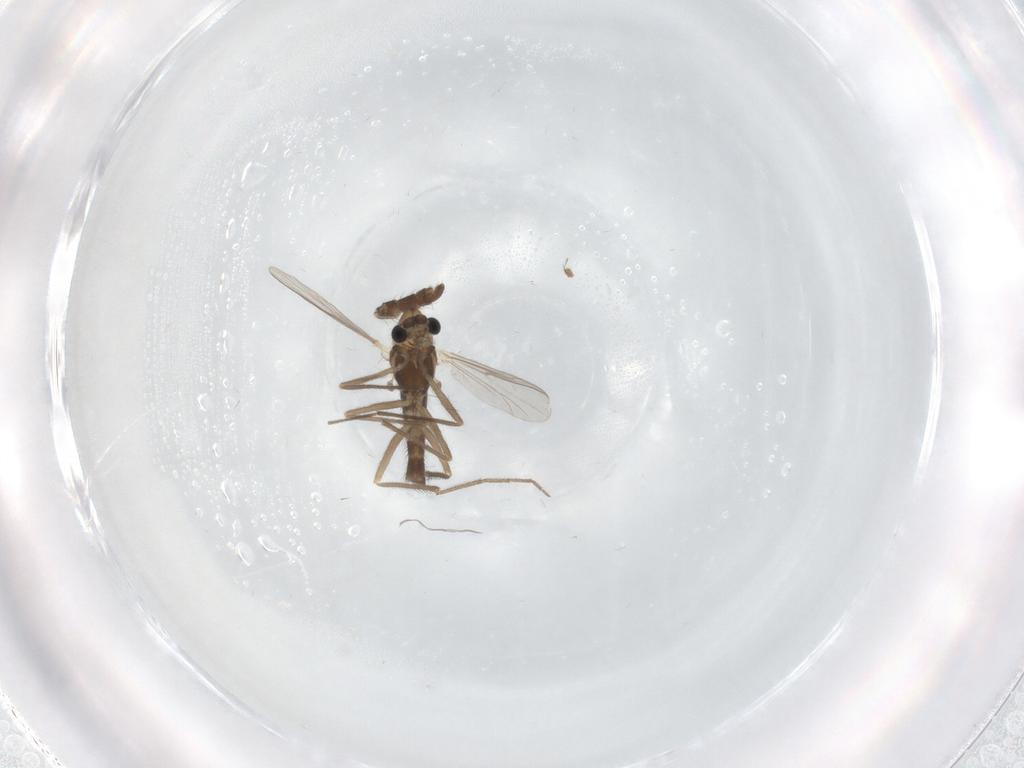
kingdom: Animalia
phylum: Arthropoda
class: Insecta
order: Diptera
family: Chironomidae
